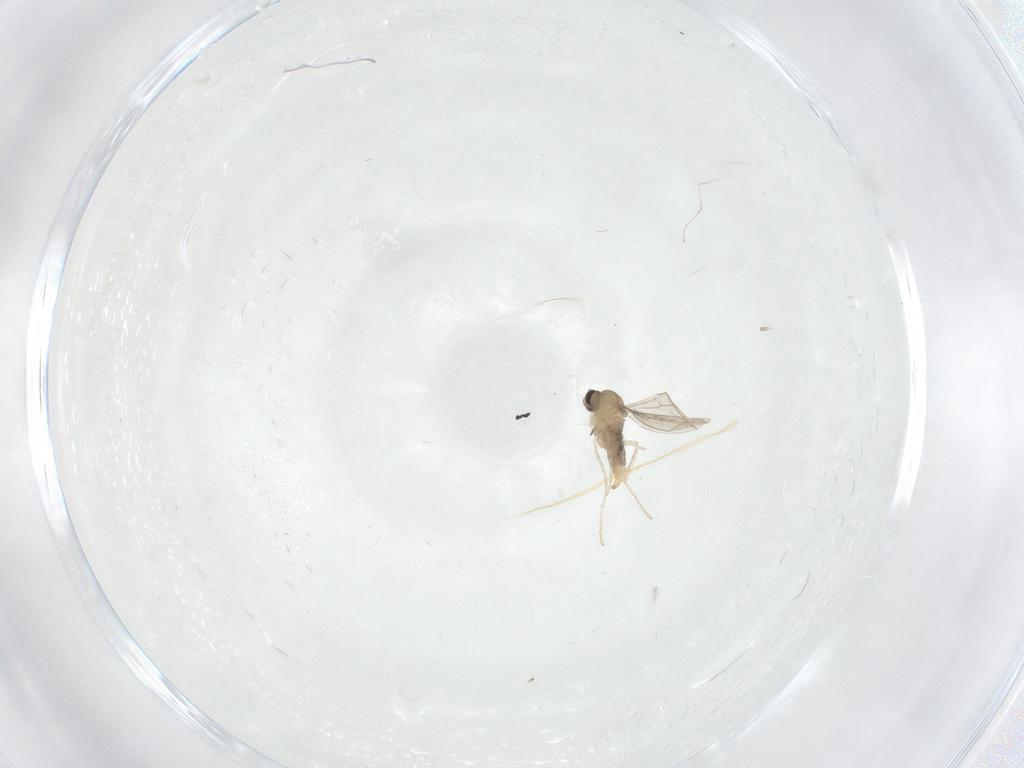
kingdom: Animalia
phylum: Arthropoda
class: Insecta
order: Diptera
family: Cecidomyiidae
